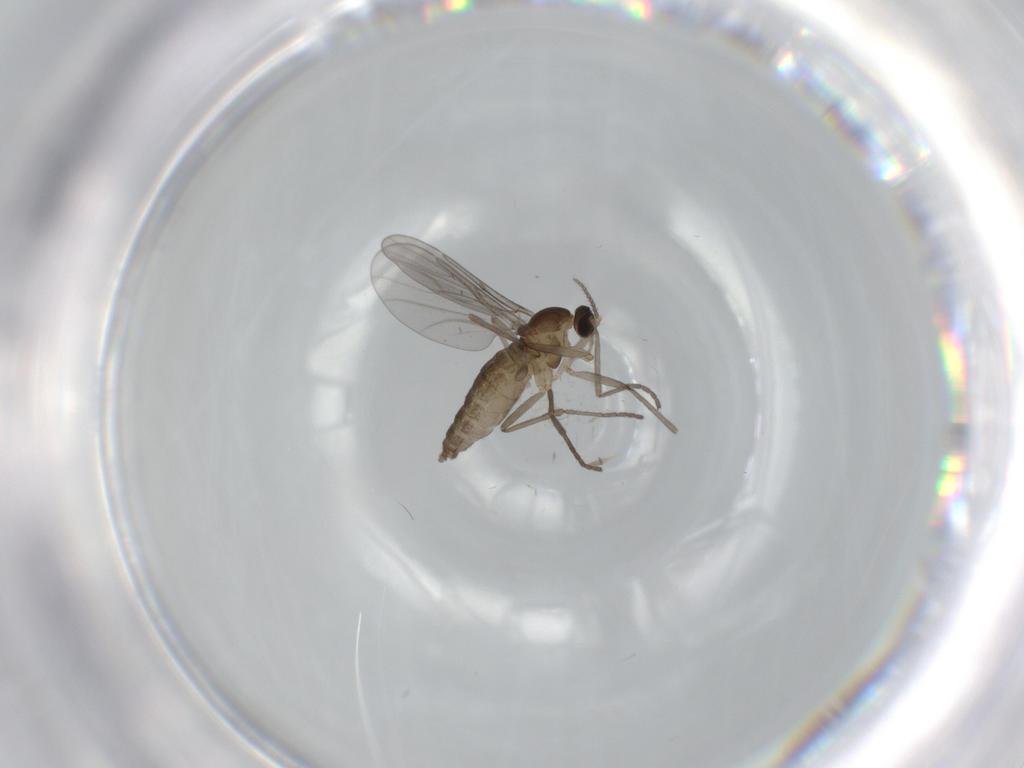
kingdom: Animalia
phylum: Arthropoda
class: Insecta
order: Diptera
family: Cecidomyiidae
